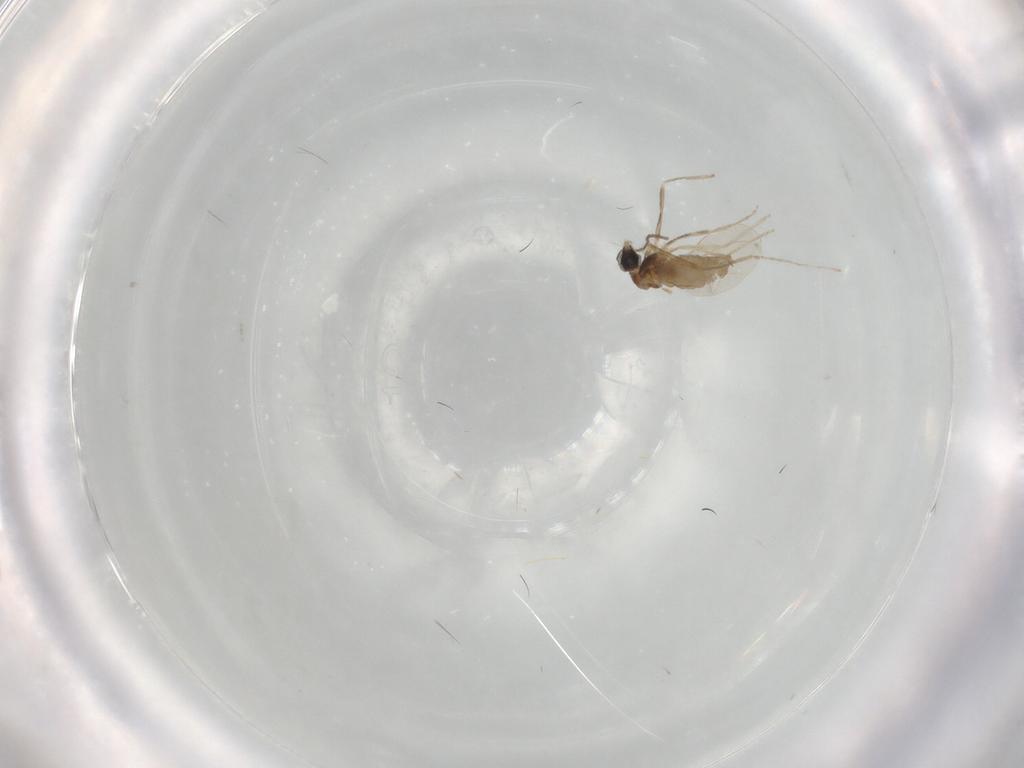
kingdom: Animalia
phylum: Arthropoda
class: Insecta
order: Diptera
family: Cecidomyiidae
